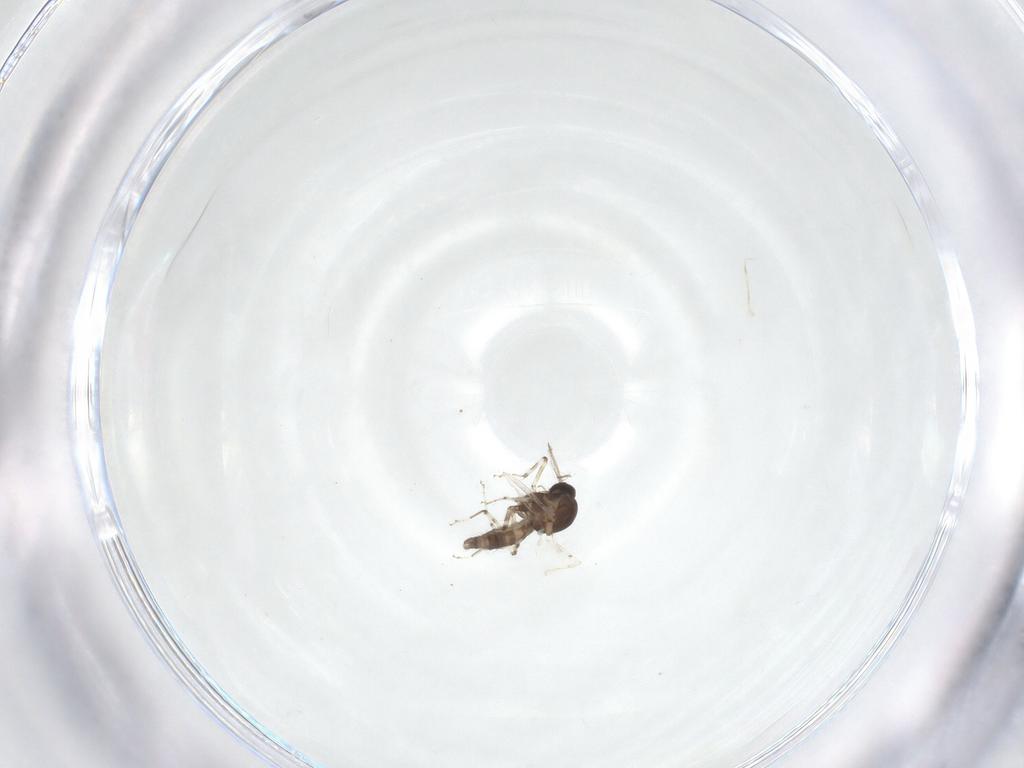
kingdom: Animalia
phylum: Arthropoda
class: Insecta
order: Diptera
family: Ceratopogonidae
